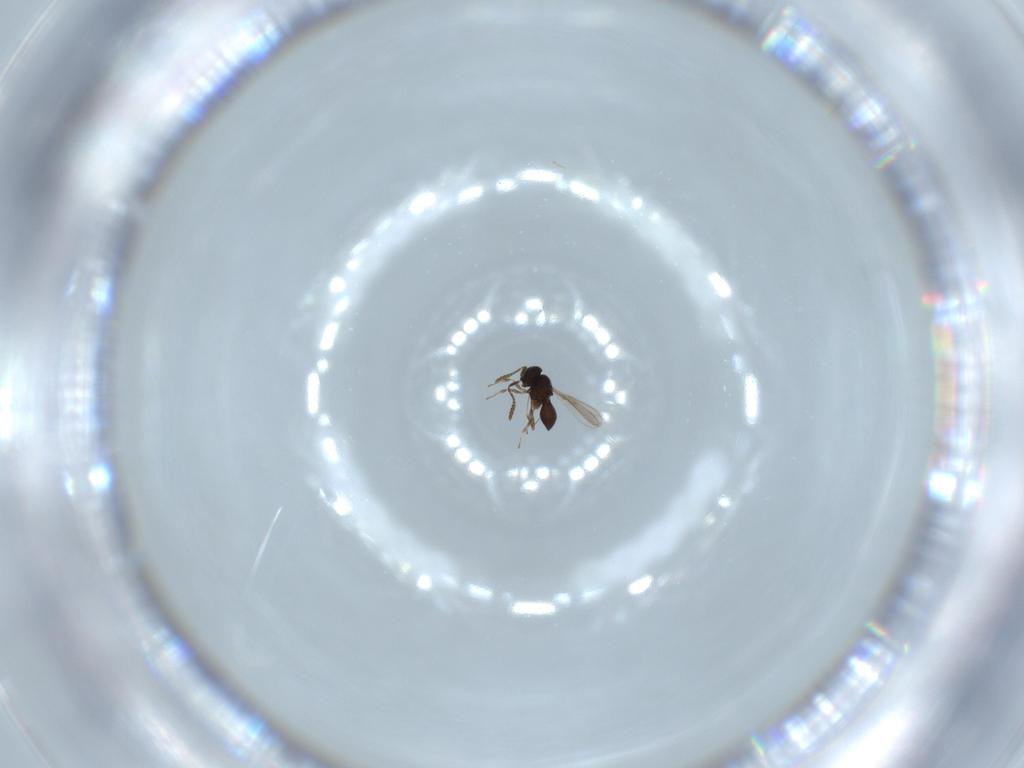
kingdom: Animalia
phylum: Arthropoda
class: Insecta
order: Hymenoptera
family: Scelionidae
